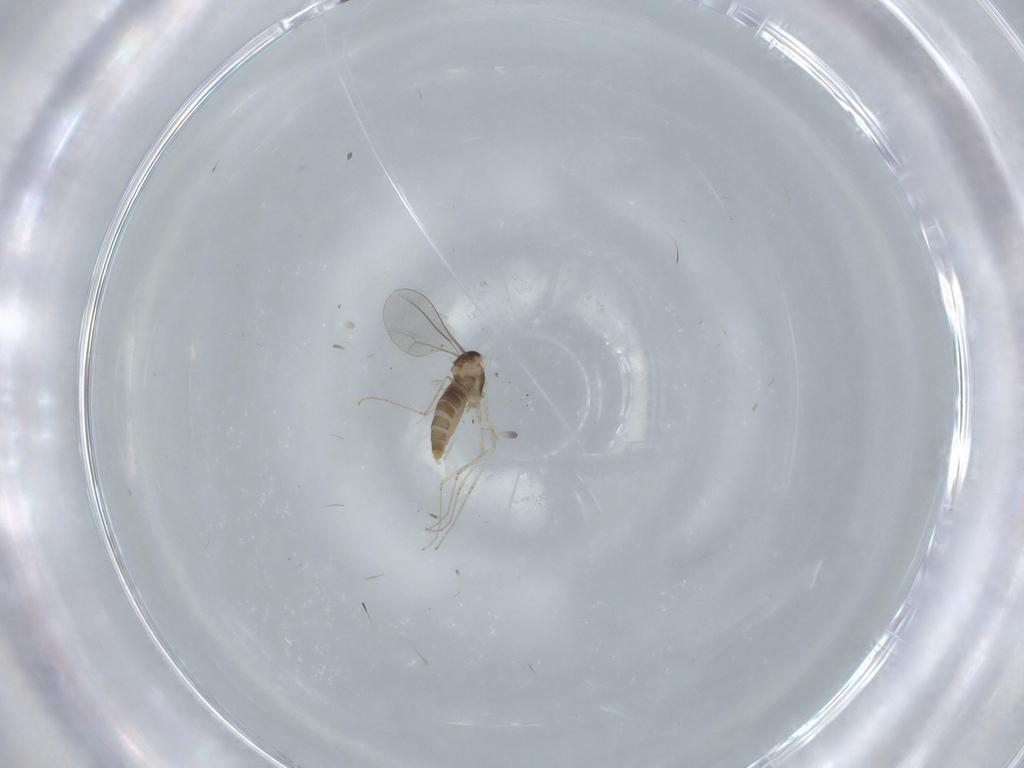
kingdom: Animalia
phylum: Arthropoda
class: Insecta
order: Diptera
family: Cecidomyiidae
